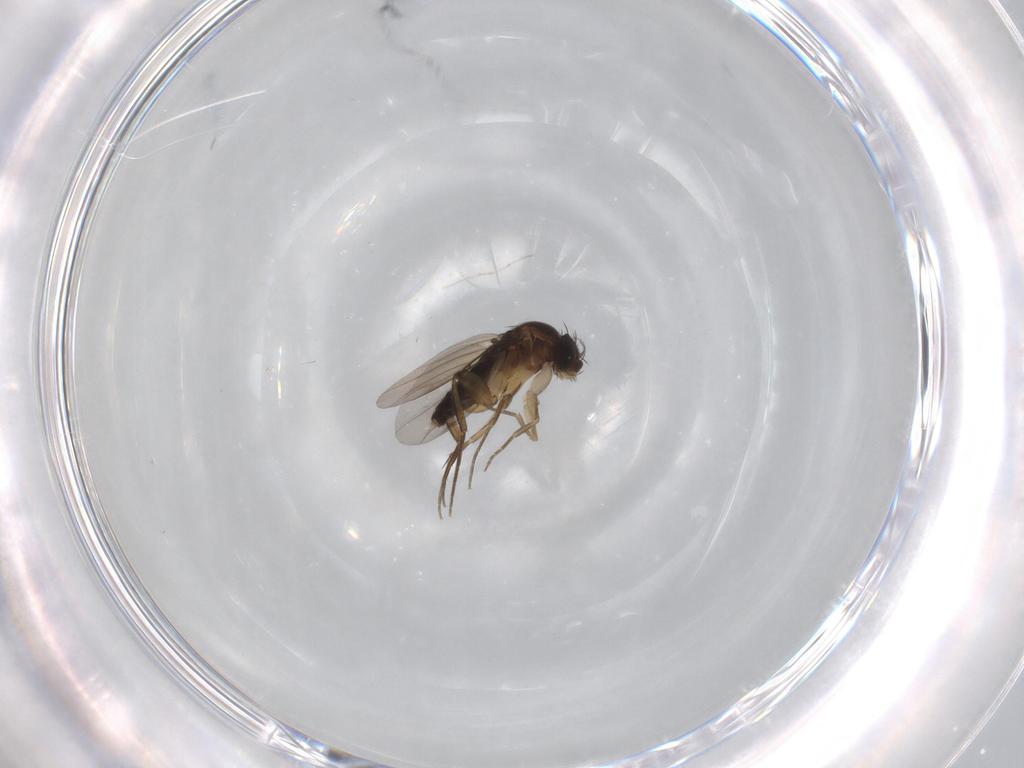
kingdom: Animalia
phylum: Arthropoda
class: Insecta
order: Diptera
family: Phoridae
